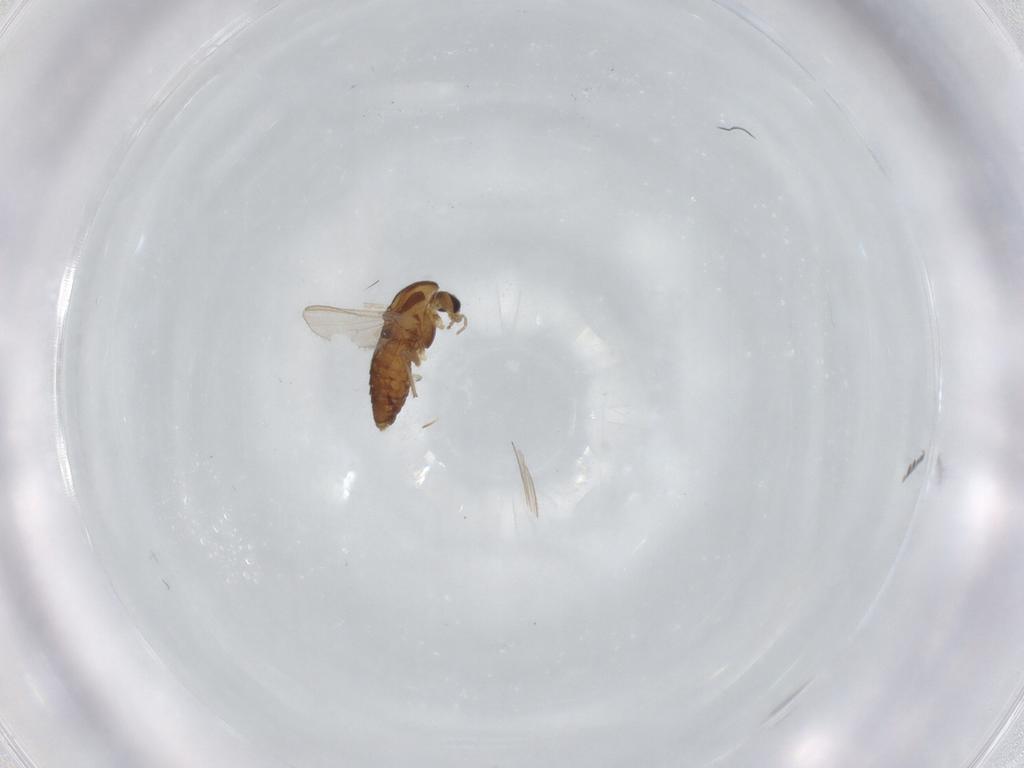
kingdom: Animalia
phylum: Arthropoda
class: Insecta
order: Diptera
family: Chironomidae
